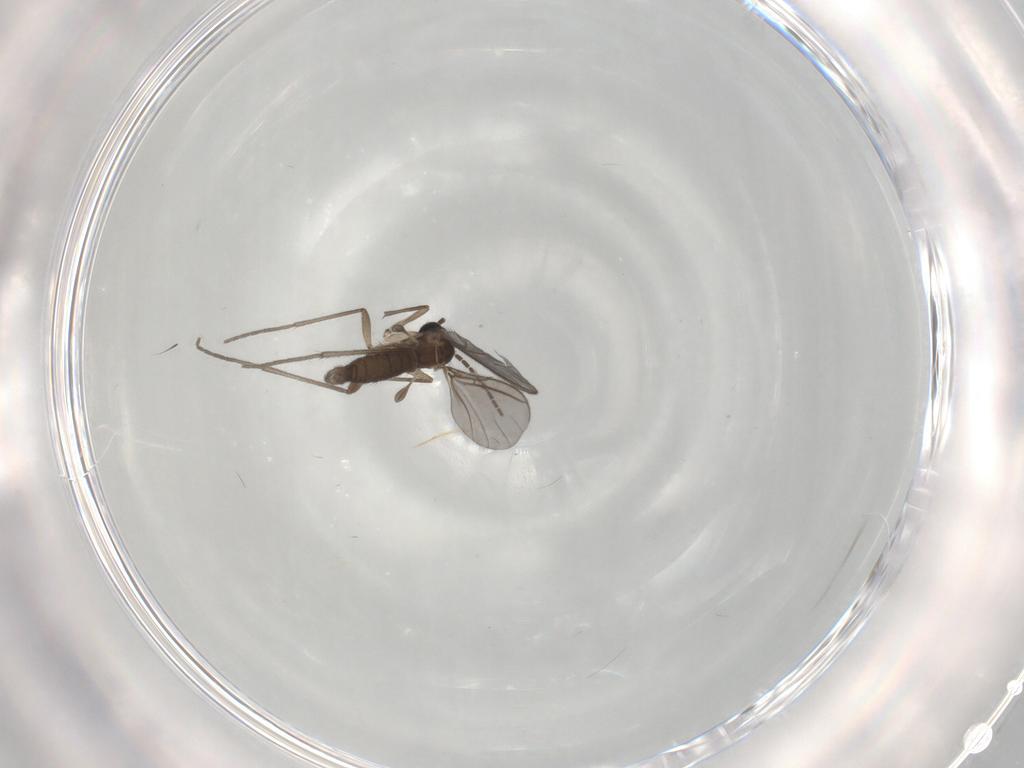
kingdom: Animalia
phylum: Arthropoda
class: Insecta
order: Diptera
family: Sciaridae
